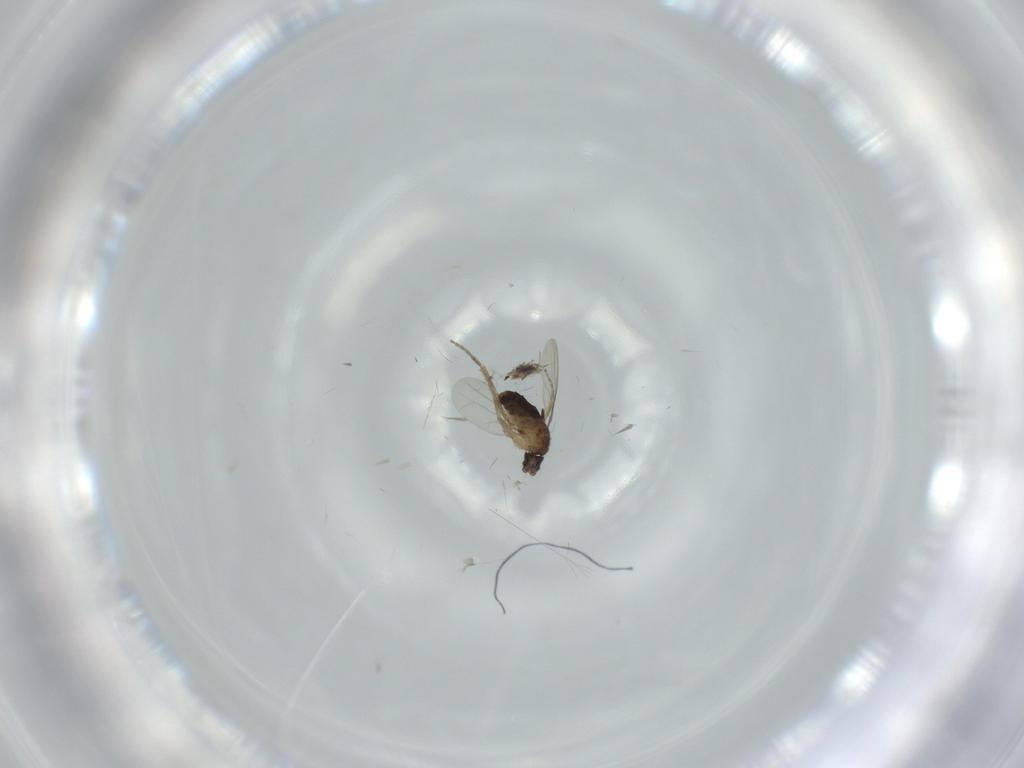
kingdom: Animalia
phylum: Arthropoda
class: Insecta
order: Diptera
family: Phoridae
